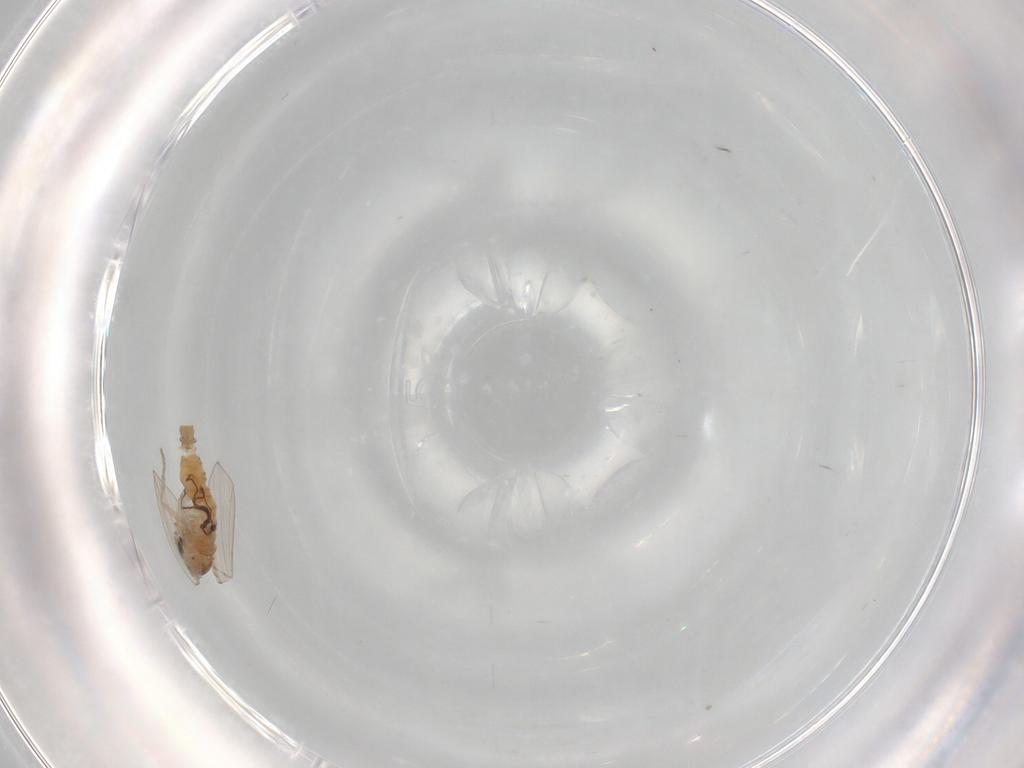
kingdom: Animalia
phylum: Arthropoda
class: Insecta
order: Diptera
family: Psychodidae
